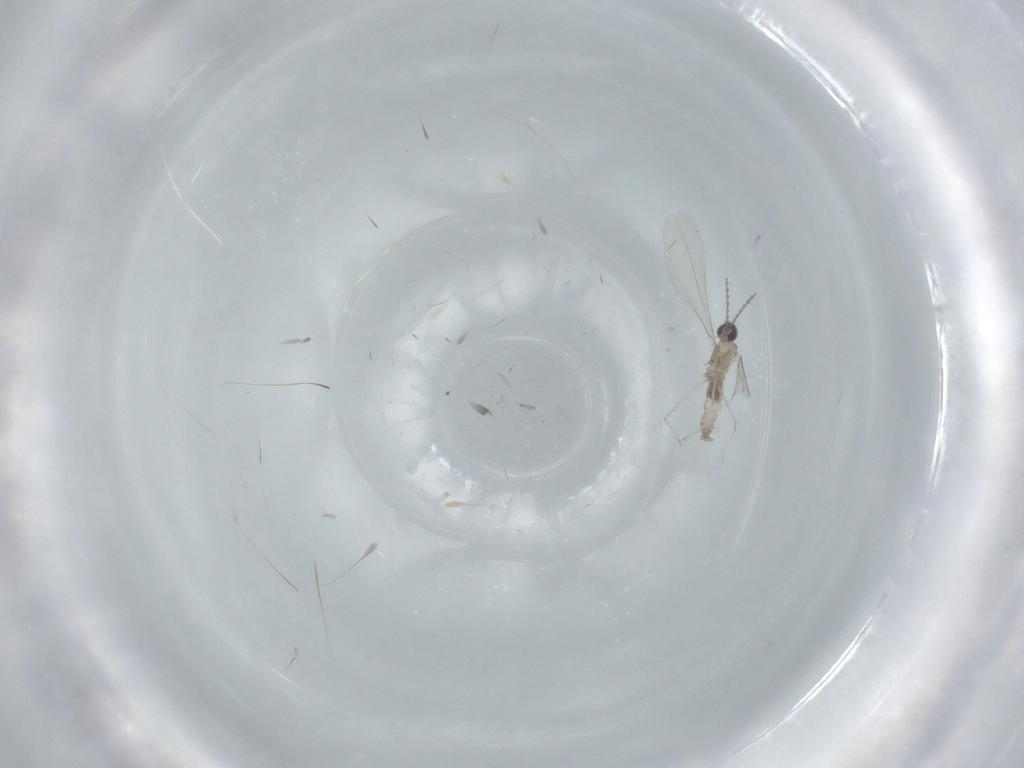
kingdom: Animalia
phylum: Arthropoda
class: Insecta
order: Diptera
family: Cecidomyiidae
